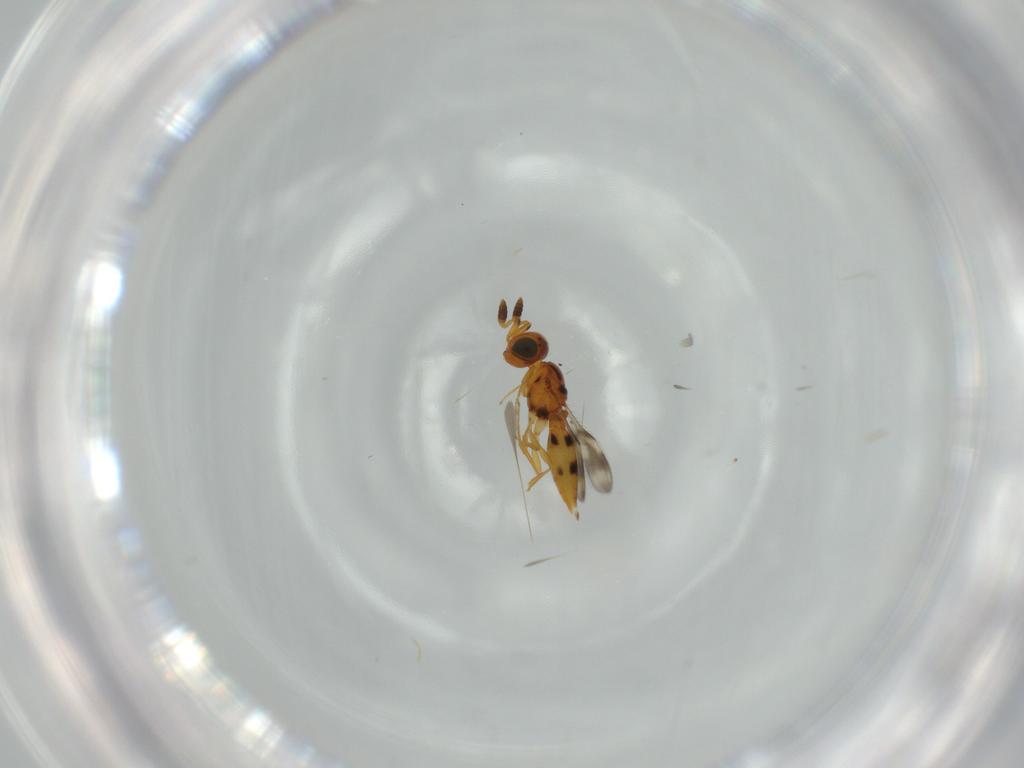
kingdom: Animalia
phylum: Arthropoda
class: Insecta
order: Hymenoptera
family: Scelionidae
